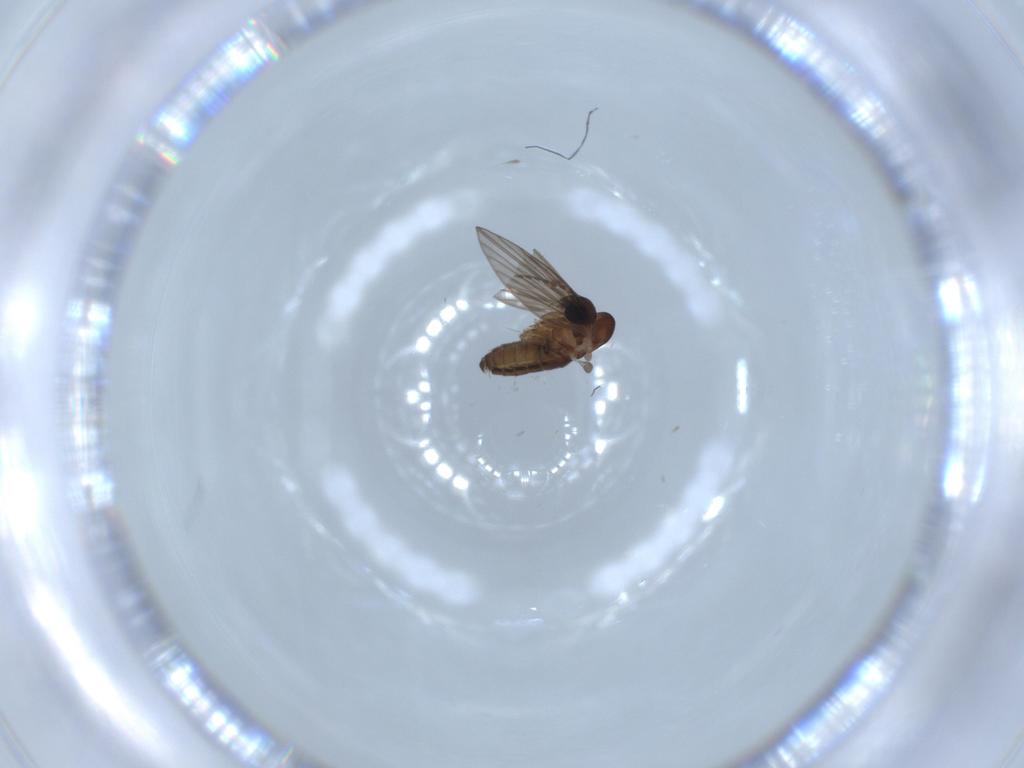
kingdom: Animalia
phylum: Arthropoda
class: Insecta
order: Diptera
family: Psychodidae
